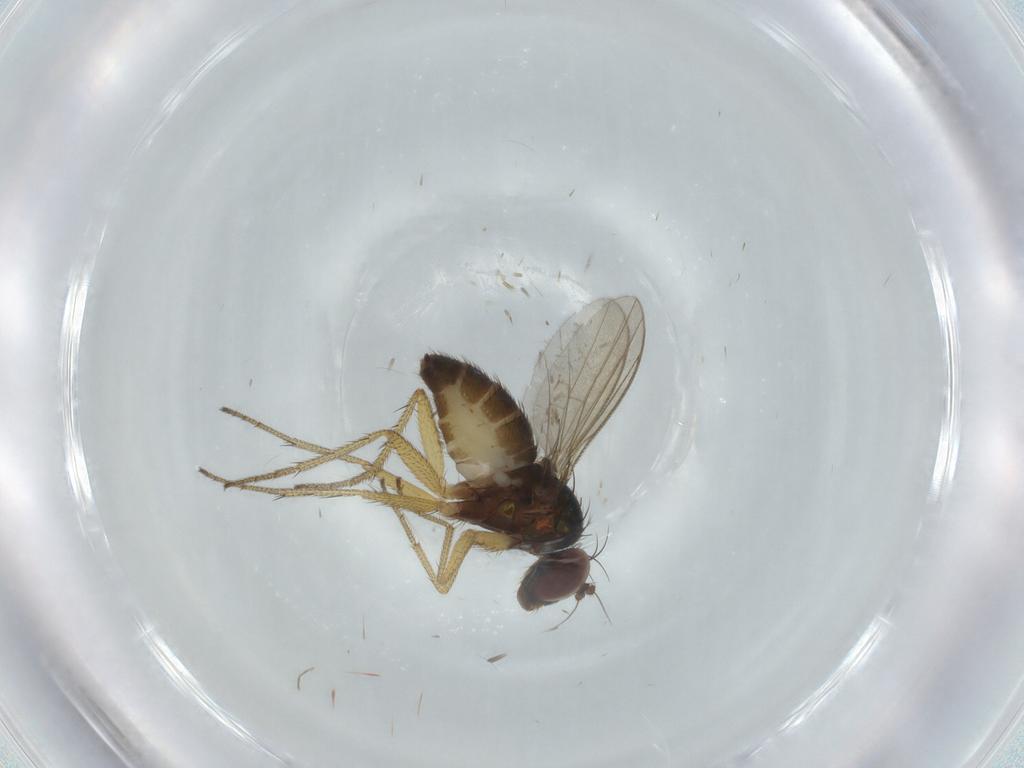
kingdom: Animalia
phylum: Arthropoda
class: Insecta
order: Diptera
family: Dolichopodidae
